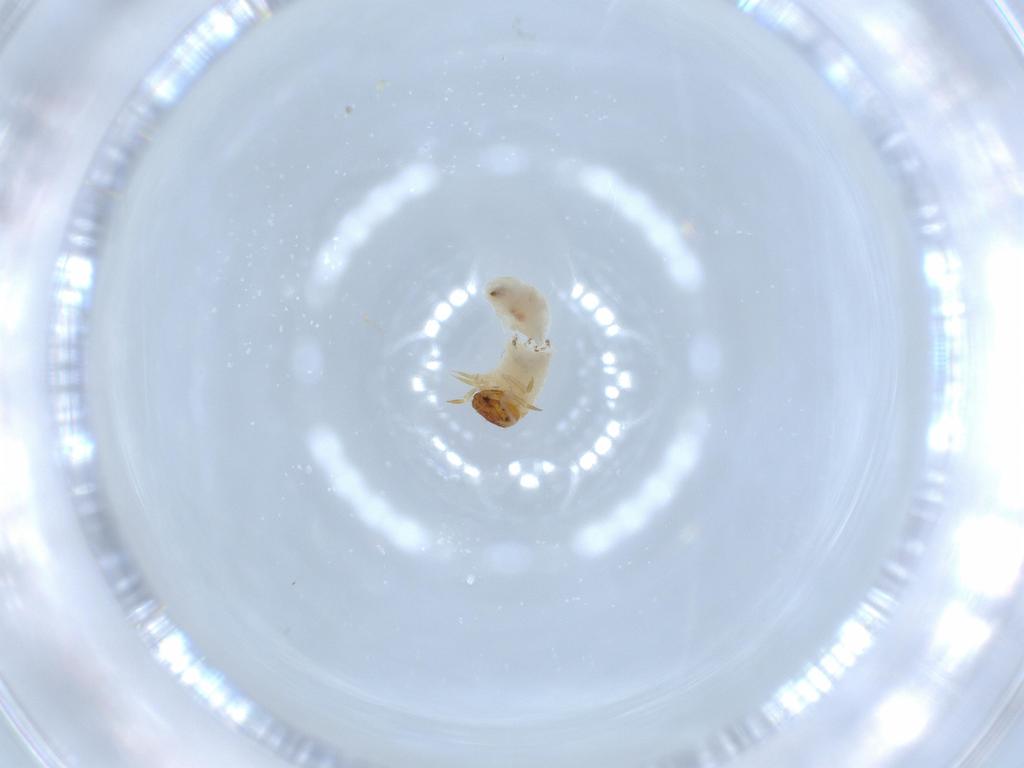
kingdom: Animalia
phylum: Arthropoda
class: Insecta
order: Coleoptera
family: Chrysomelidae
